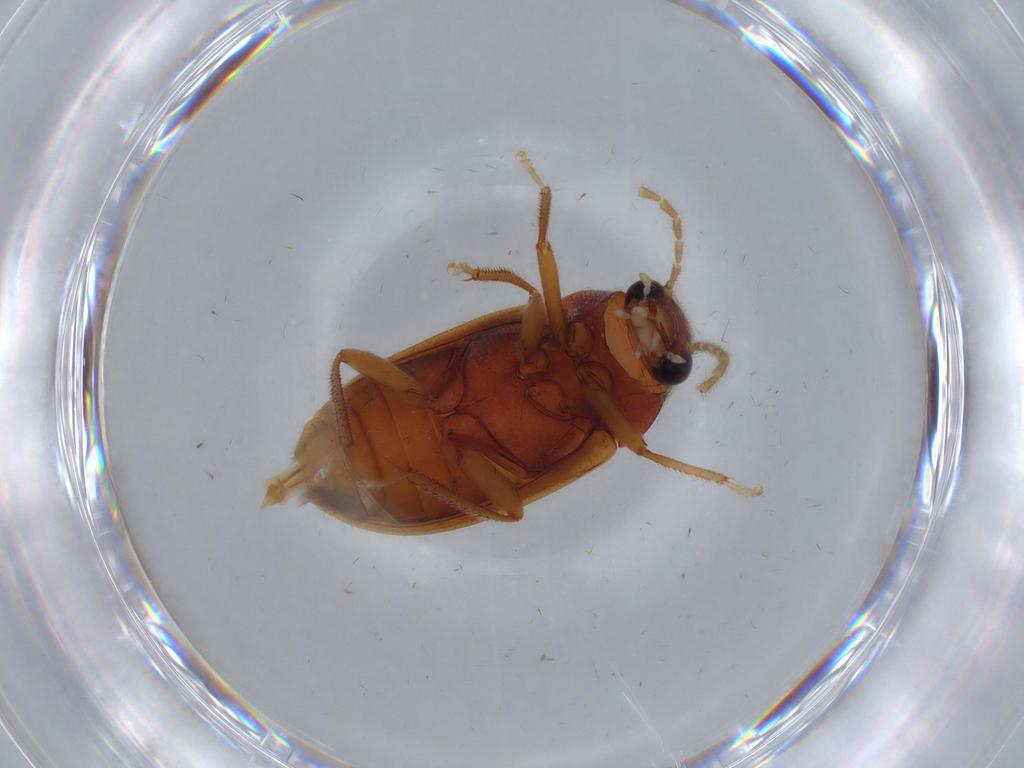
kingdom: Animalia
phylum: Arthropoda
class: Insecta
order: Coleoptera
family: Ptilodactylidae
